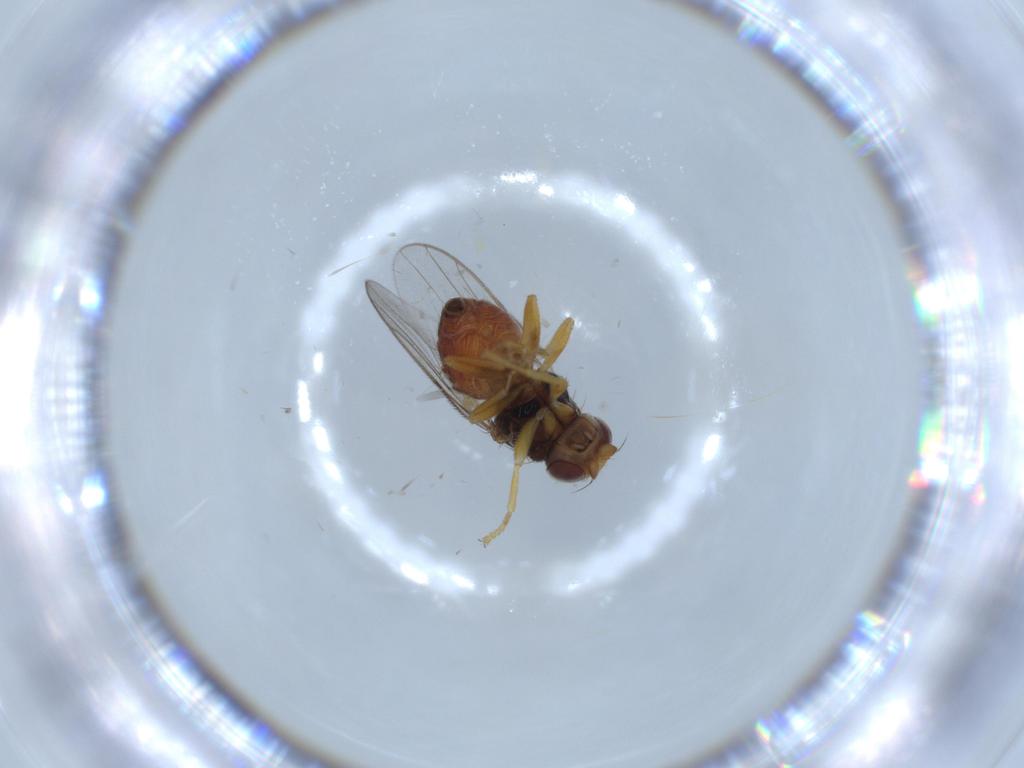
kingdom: Animalia
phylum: Arthropoda
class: Insecta
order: Diptera
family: Chloropidae
